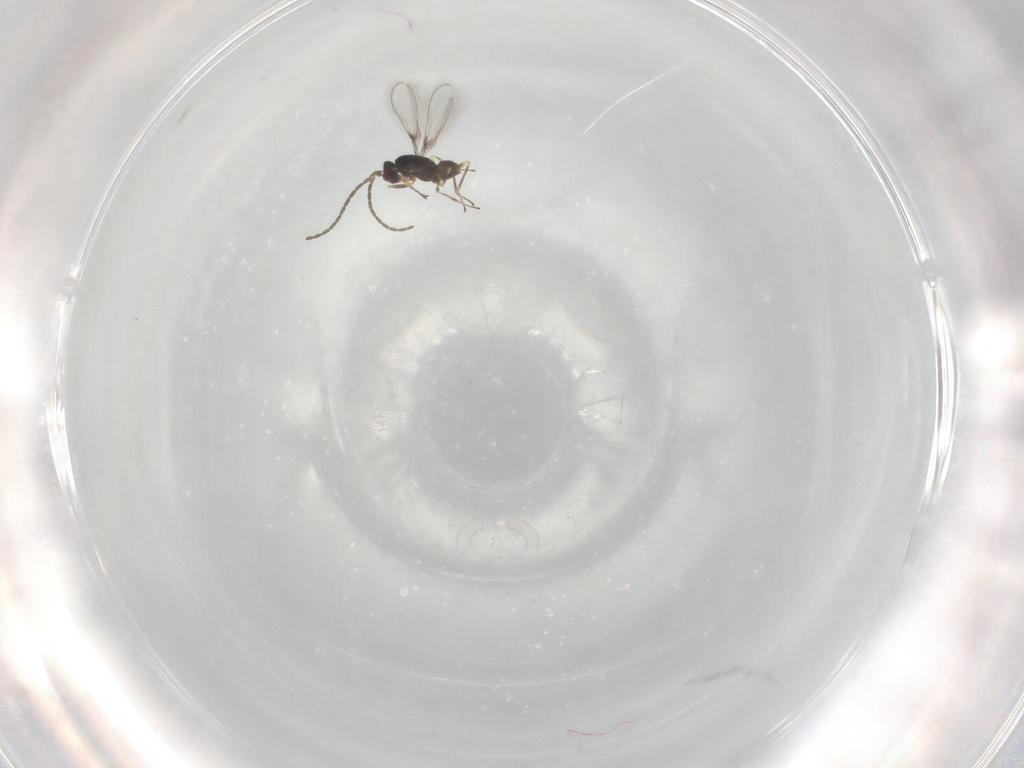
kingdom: Animalia
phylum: Arthropoda
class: Insecta
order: Hymenoptera
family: Mymaridae
